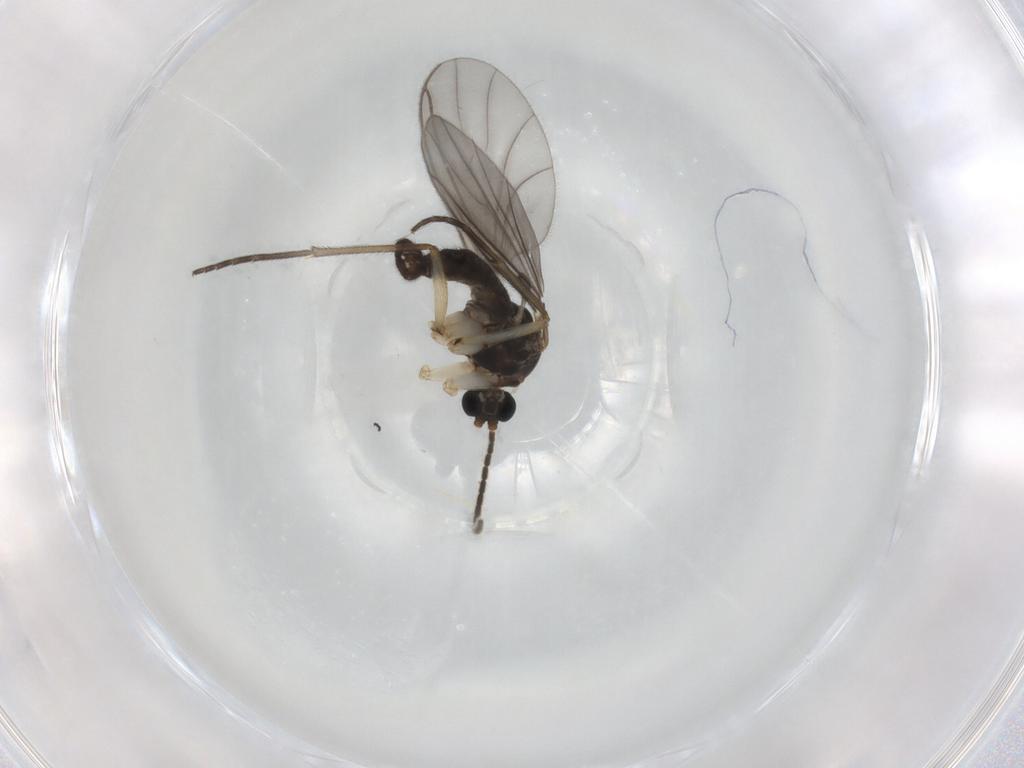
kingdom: Animalia
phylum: Arthropoda
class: Insecta
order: Diptera
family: Sciaridae
